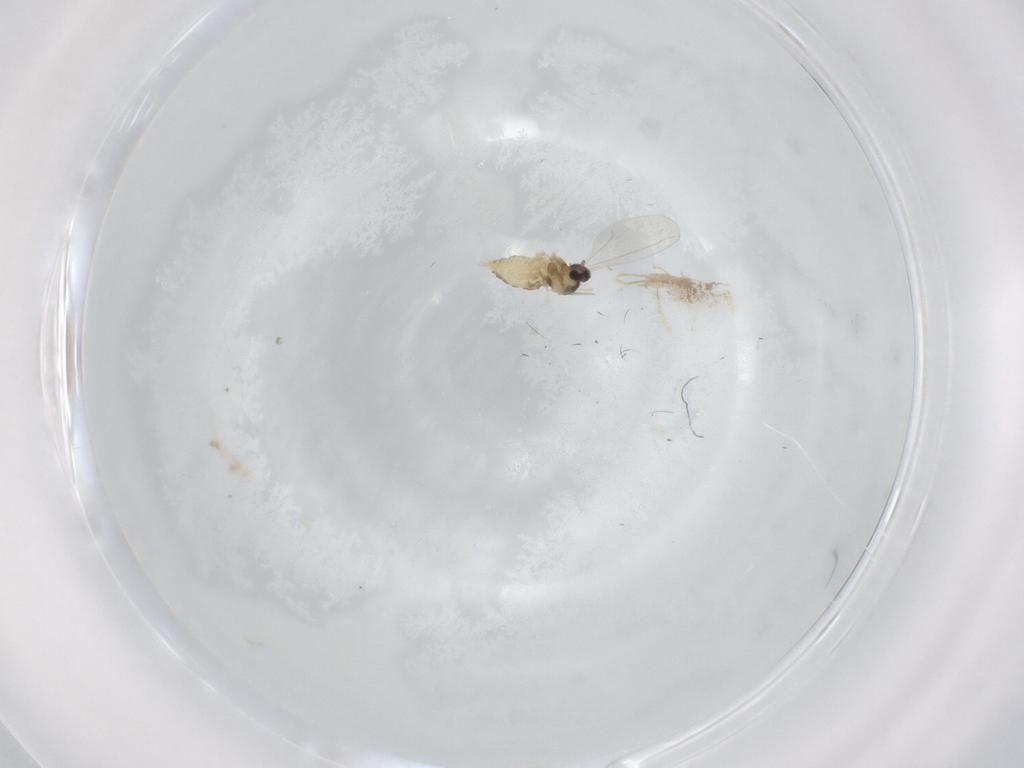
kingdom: Animalia
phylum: Arthropoda
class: Insecta
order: Diptera
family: Cecidomyiidae
